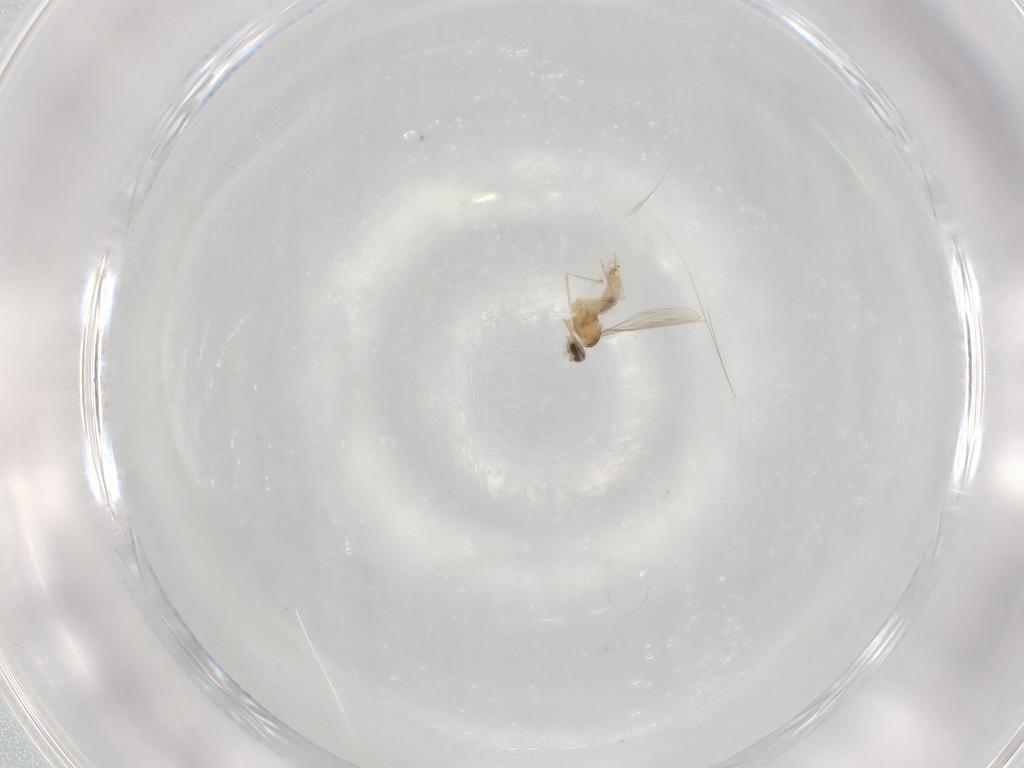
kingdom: Animalia
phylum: Arthropoda
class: Insecta
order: Diptera
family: Cecidomyiidae
